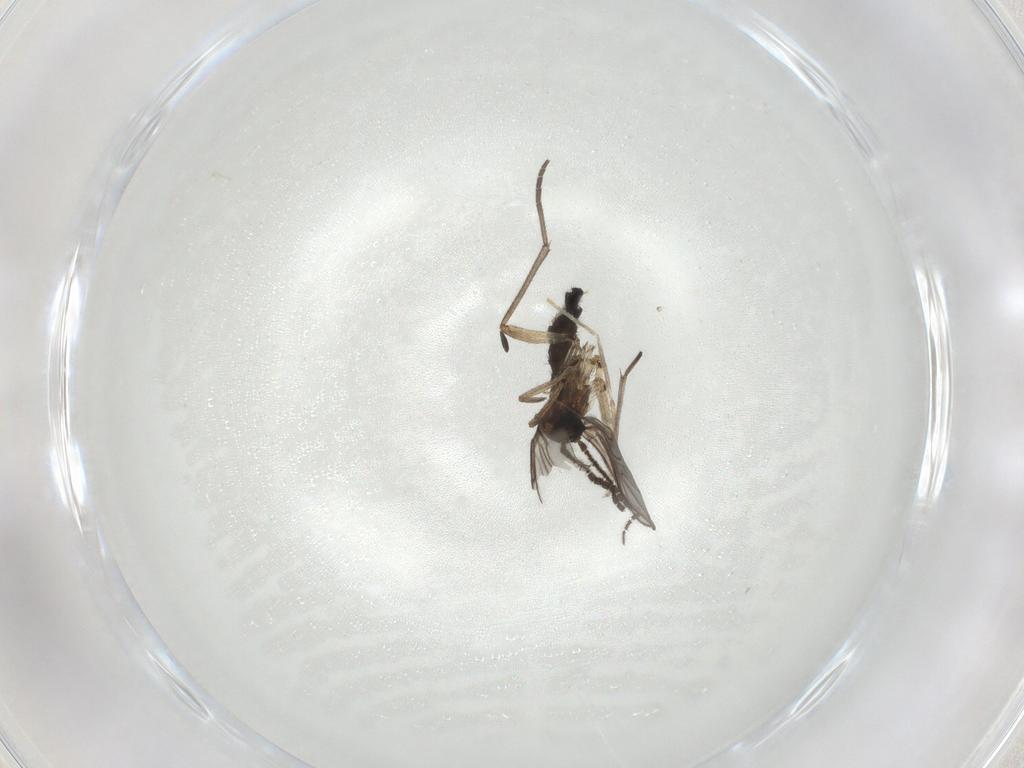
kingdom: Animalia
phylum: Arthropoda
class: Insecta
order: Diptera
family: Sciaridae
